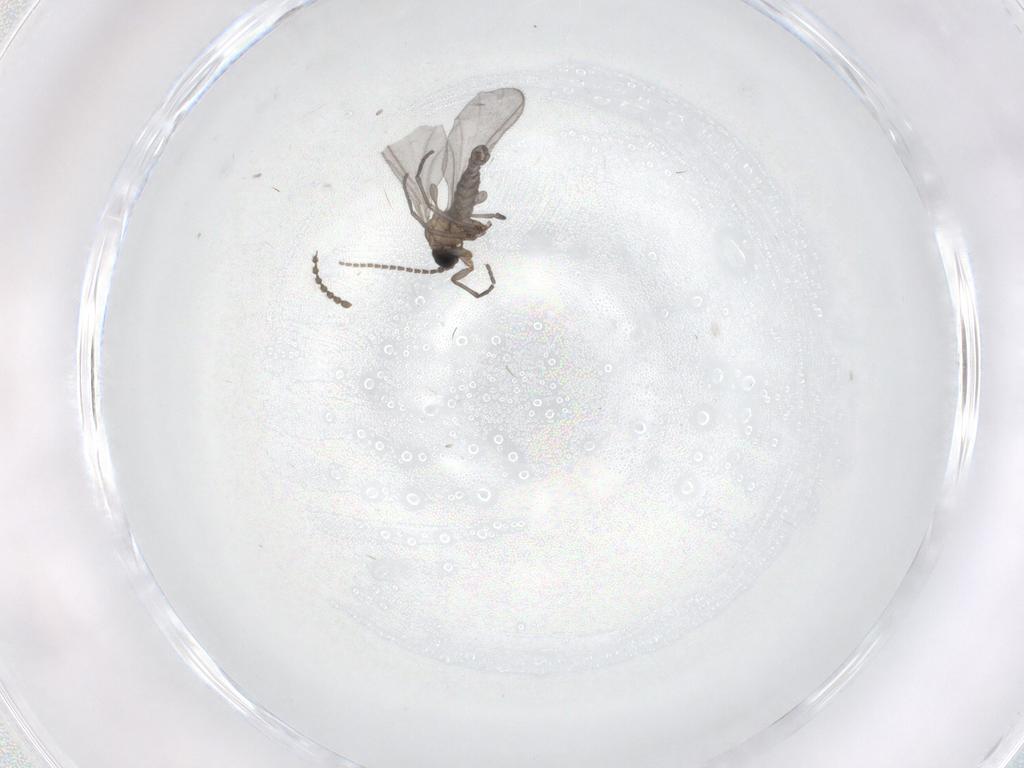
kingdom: Animalia
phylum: Arthropoda
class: Insecta
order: Diptera
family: Sciaridae
